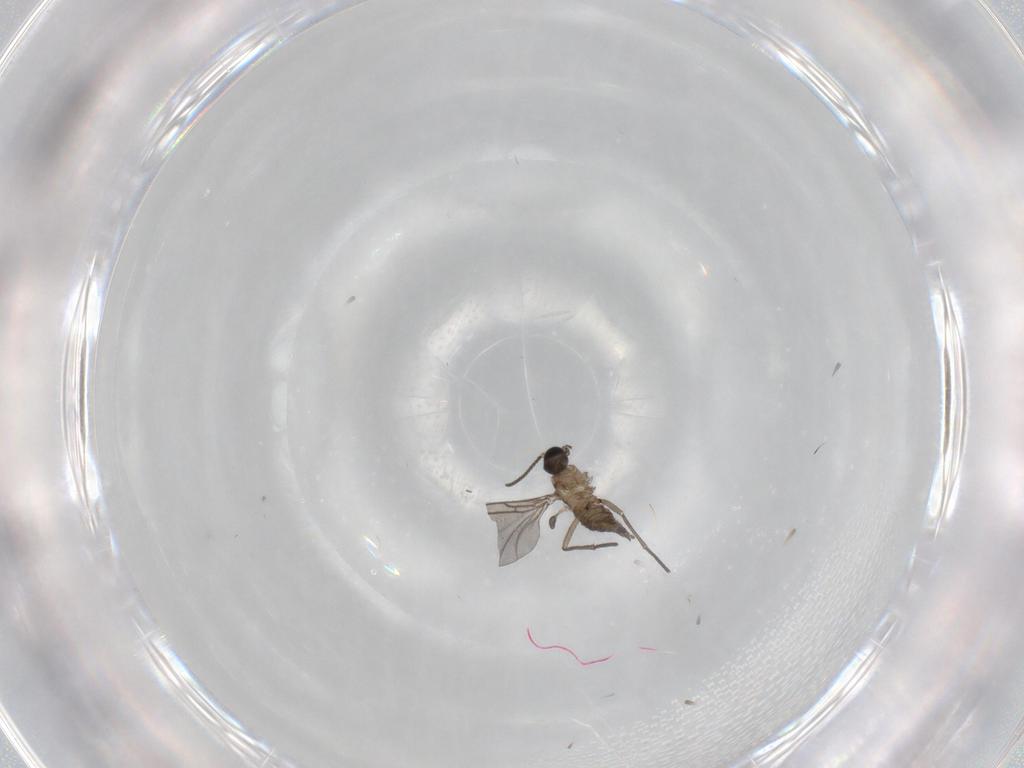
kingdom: Animalia
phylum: Arthropoda
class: Insecta
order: Diptera
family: Sciaridae
